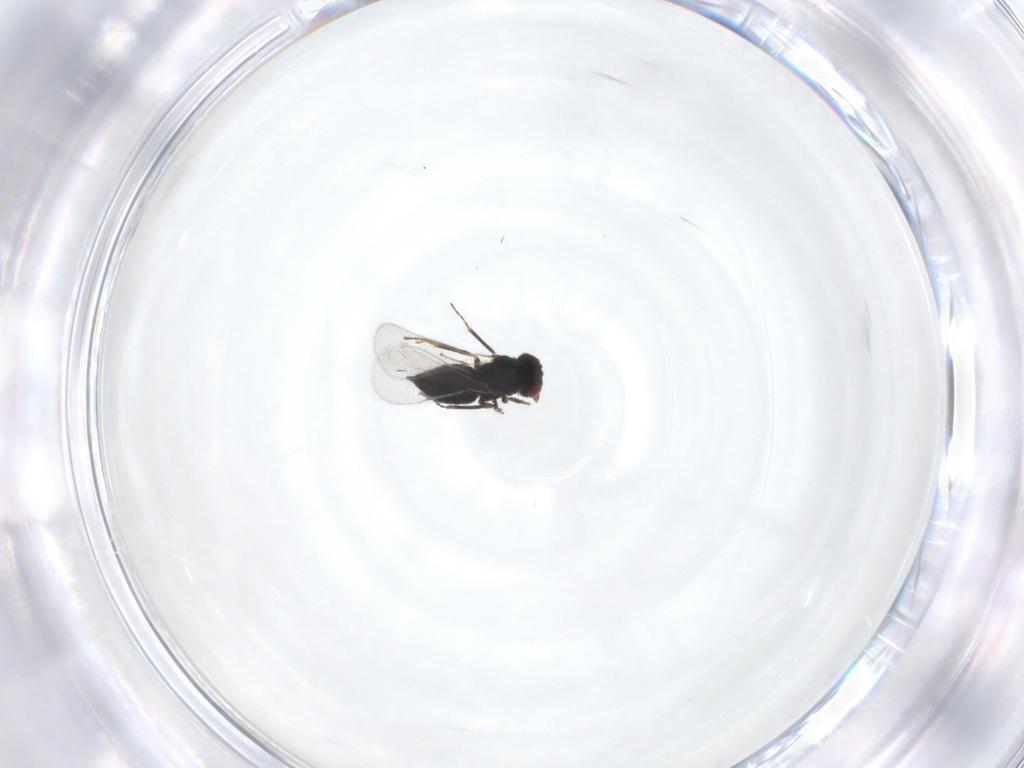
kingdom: Animalia
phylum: Arthropoda
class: Insecta
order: Hymenoptera
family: Eulophidae
